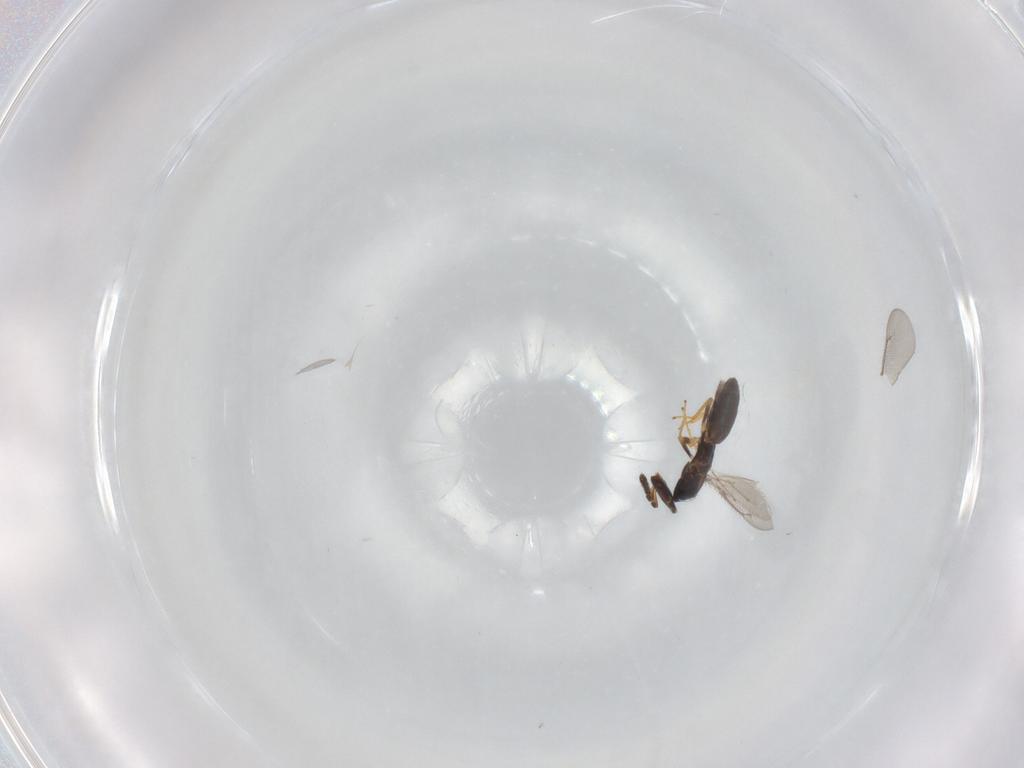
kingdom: Animalia
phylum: Arthropoda
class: Insecta
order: Hymenoptera
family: Eulophidae
